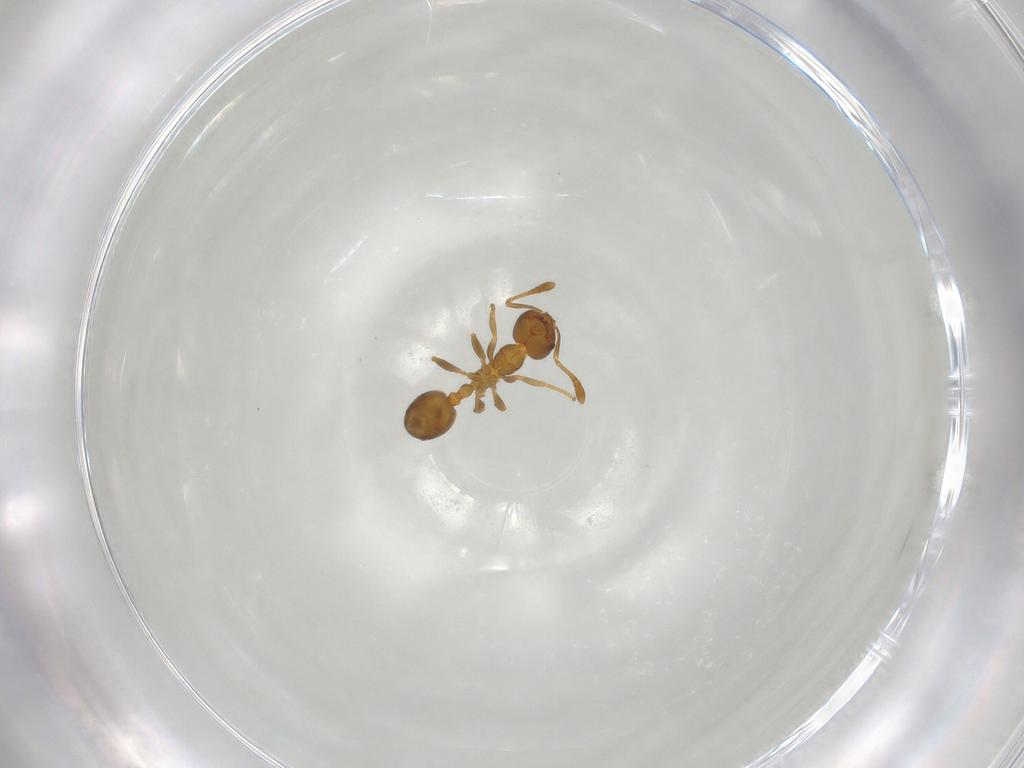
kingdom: Animalia
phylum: Arthropoda
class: Insecta
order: Hymenoptera
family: Formicidae
